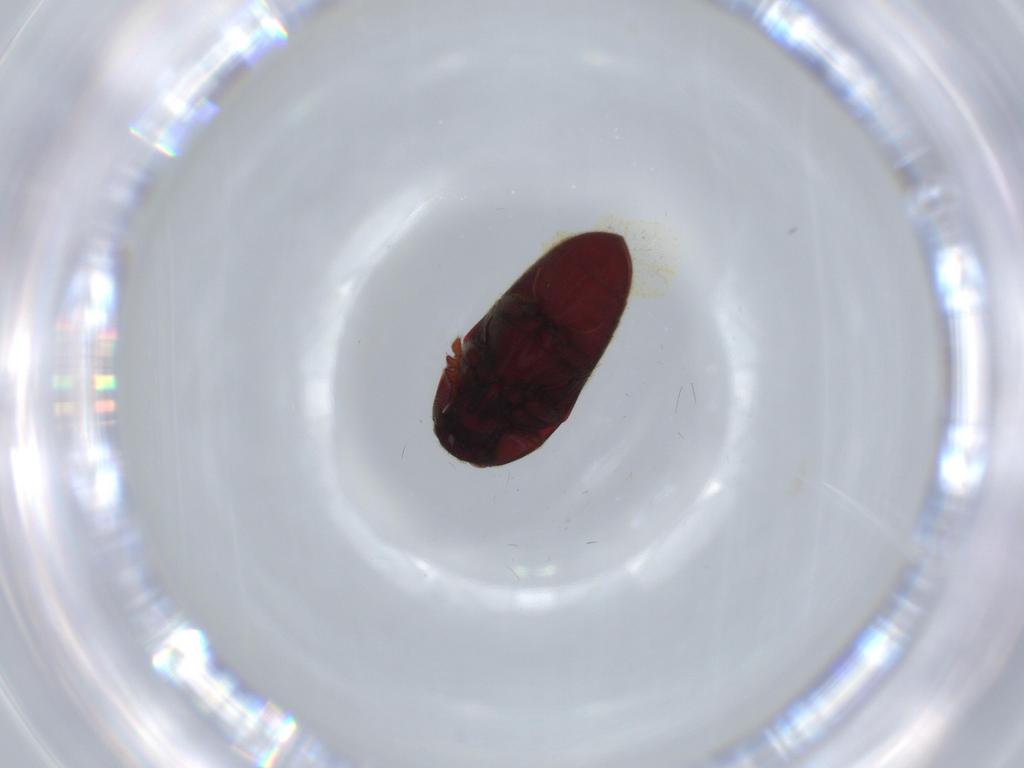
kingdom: Animalia
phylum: Arthropoda
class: Insecta
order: Coleoptera
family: Throscidae
